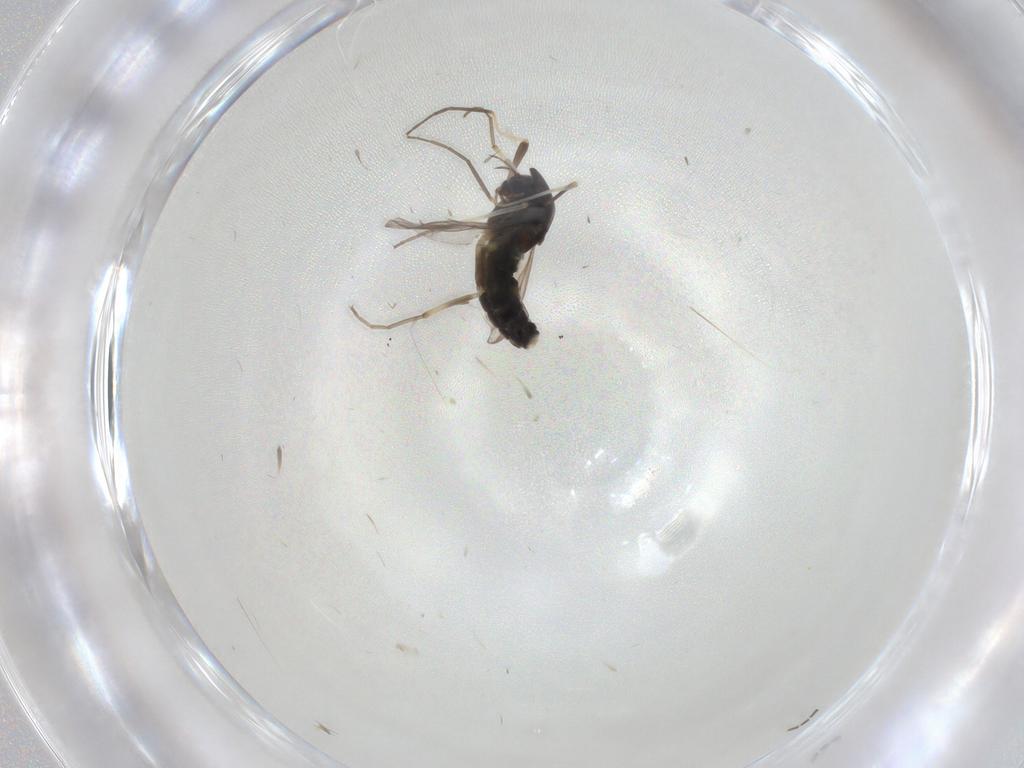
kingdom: Animalia
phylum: Arthropoda
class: Insecta
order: Diptera
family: Chironomidae
